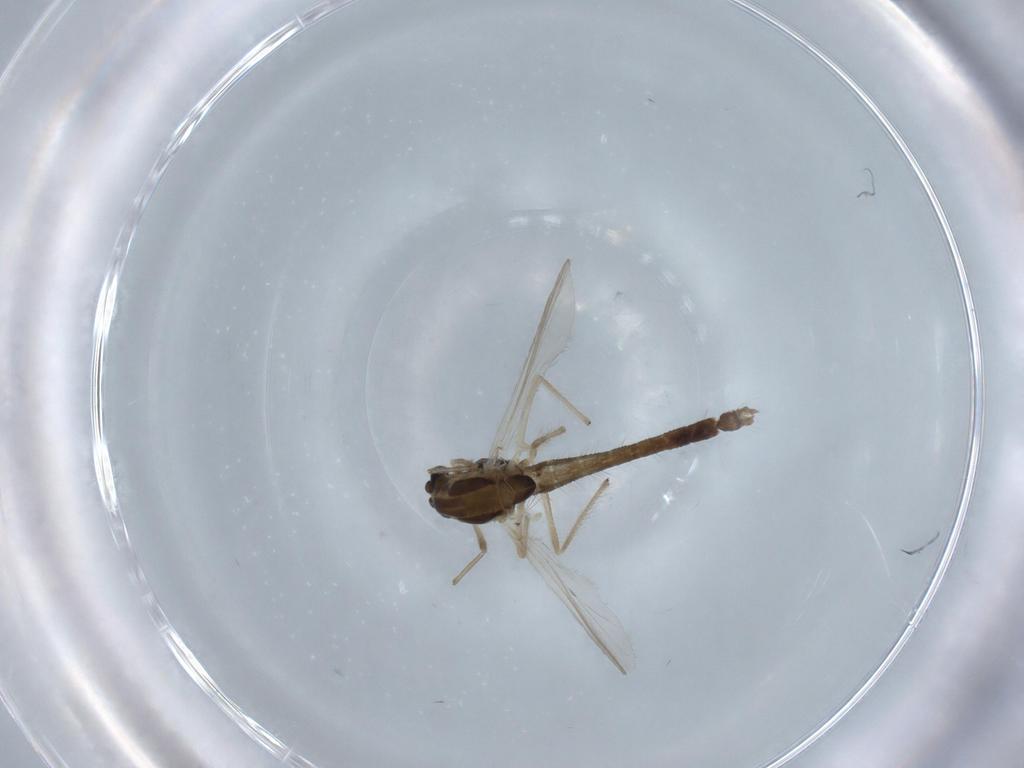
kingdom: Animalia
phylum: Arthropoda
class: Insecta
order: Diptera
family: Chironomidae
